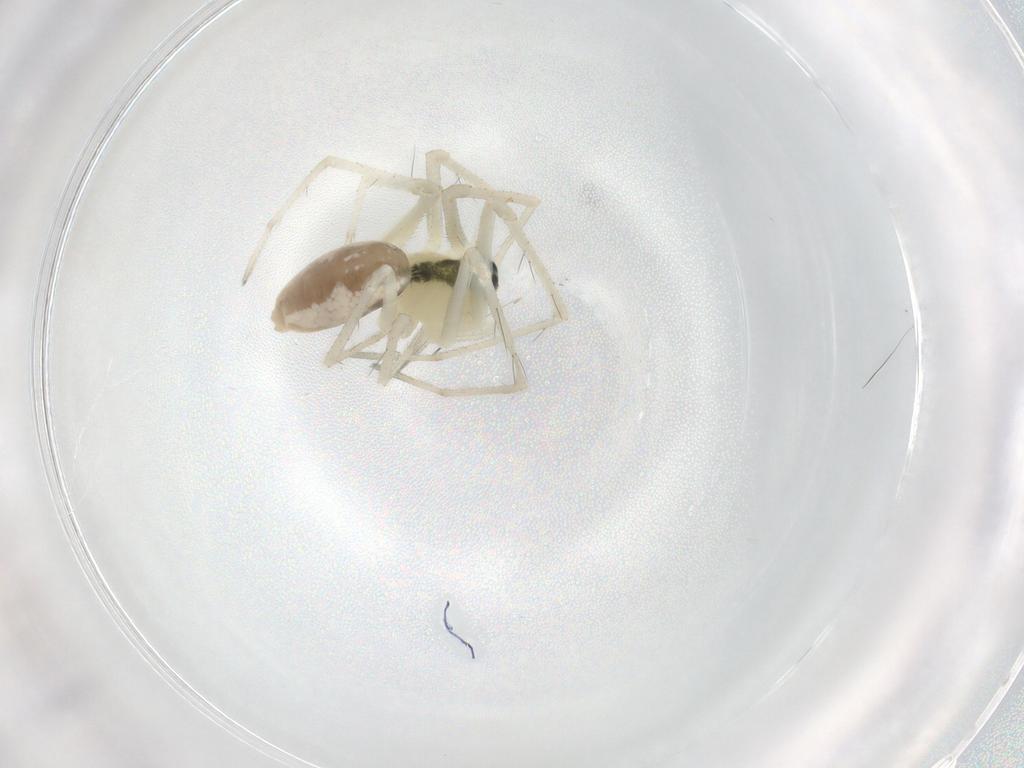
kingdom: Animalia
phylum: Arthropoda
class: Arachnida
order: Araneae
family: Linyphiidae
